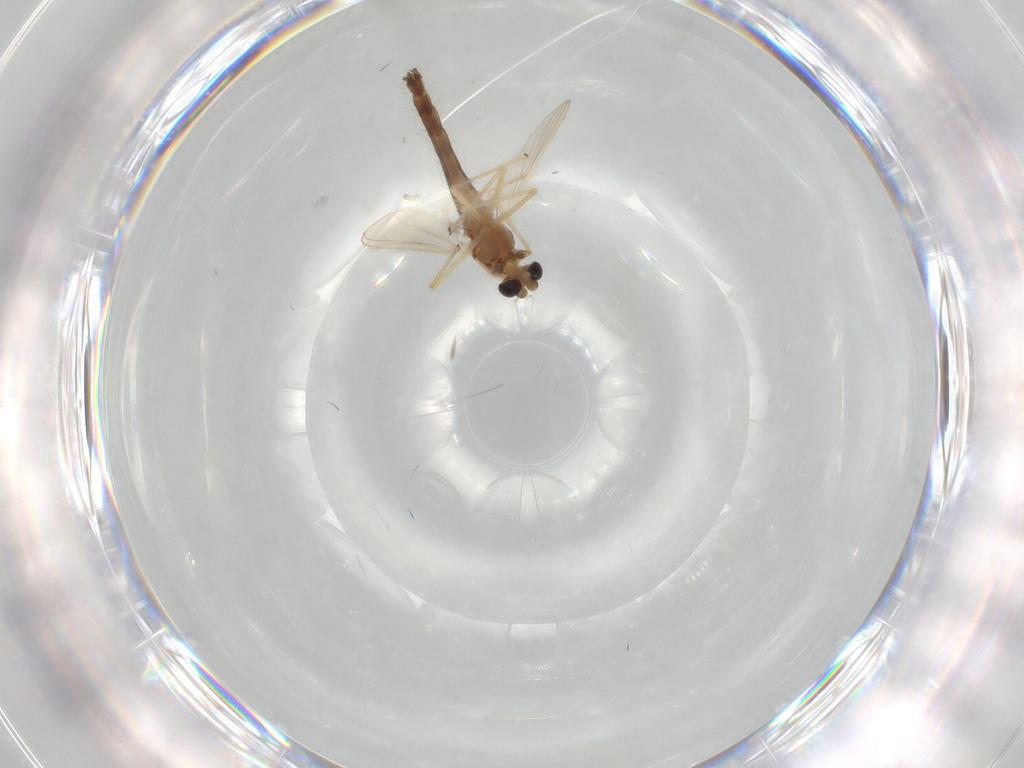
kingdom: Animalia
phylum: Arthropoda
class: Insecta
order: Diptera
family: Chironomidae
